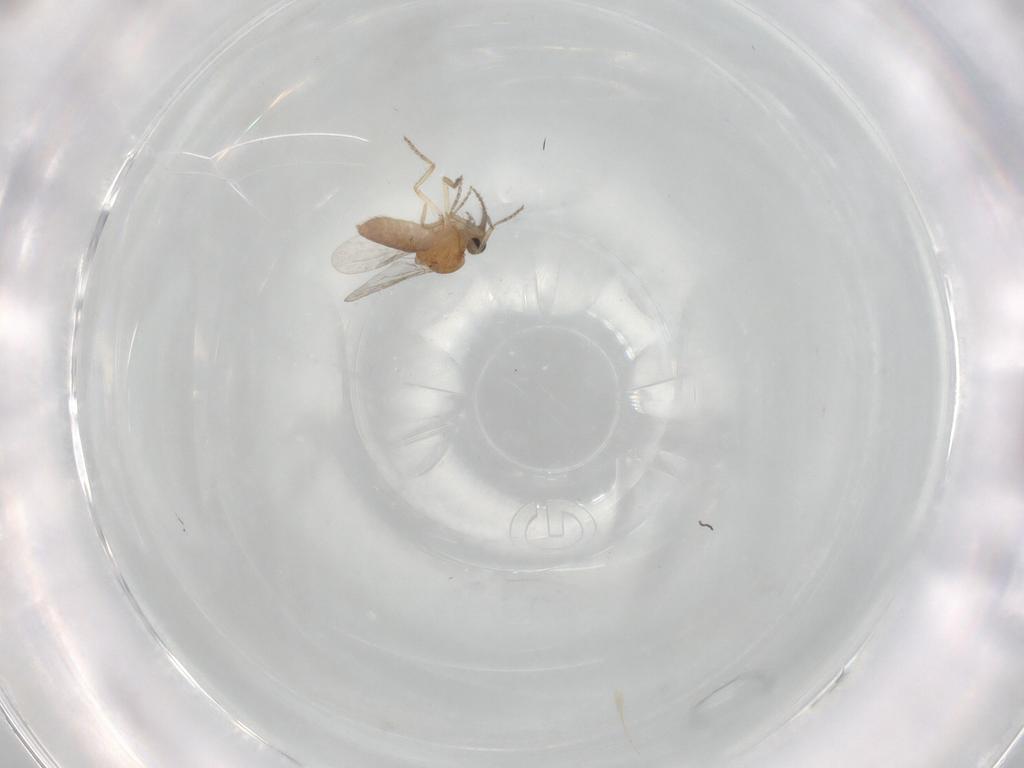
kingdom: Animalia
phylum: Arthropoda
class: Insecta
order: Diptera
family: Ceratopogonidae
